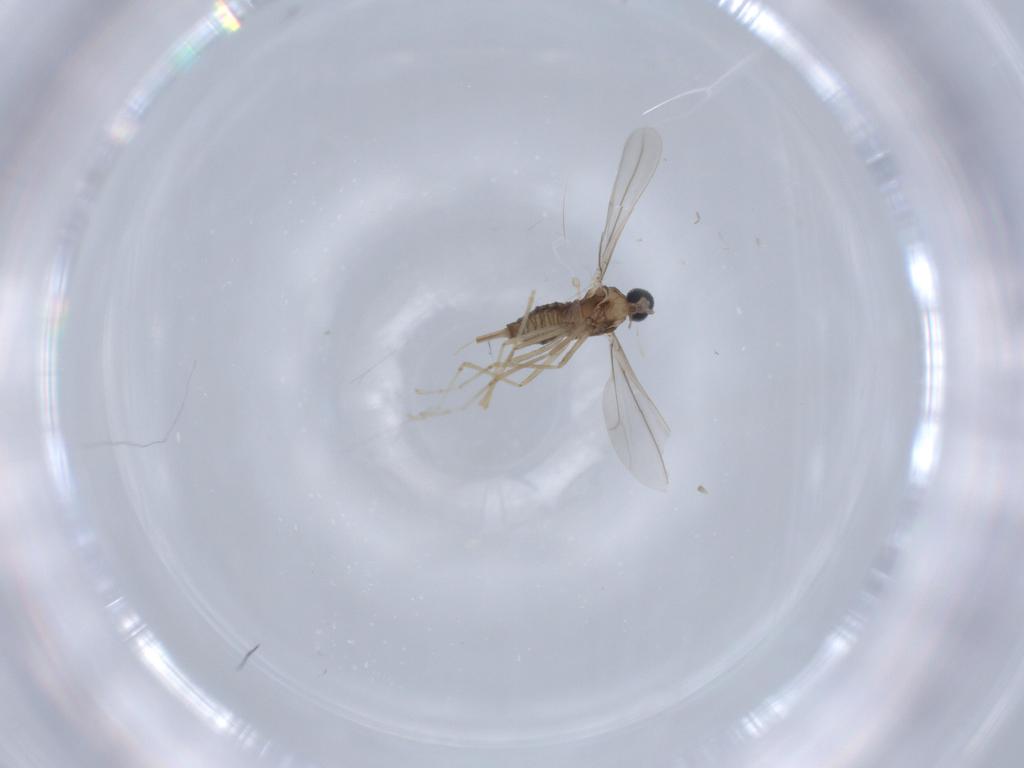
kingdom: Animalia
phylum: Arthropoda
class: Insecta
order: Diptera
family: Cecidomyiidae
